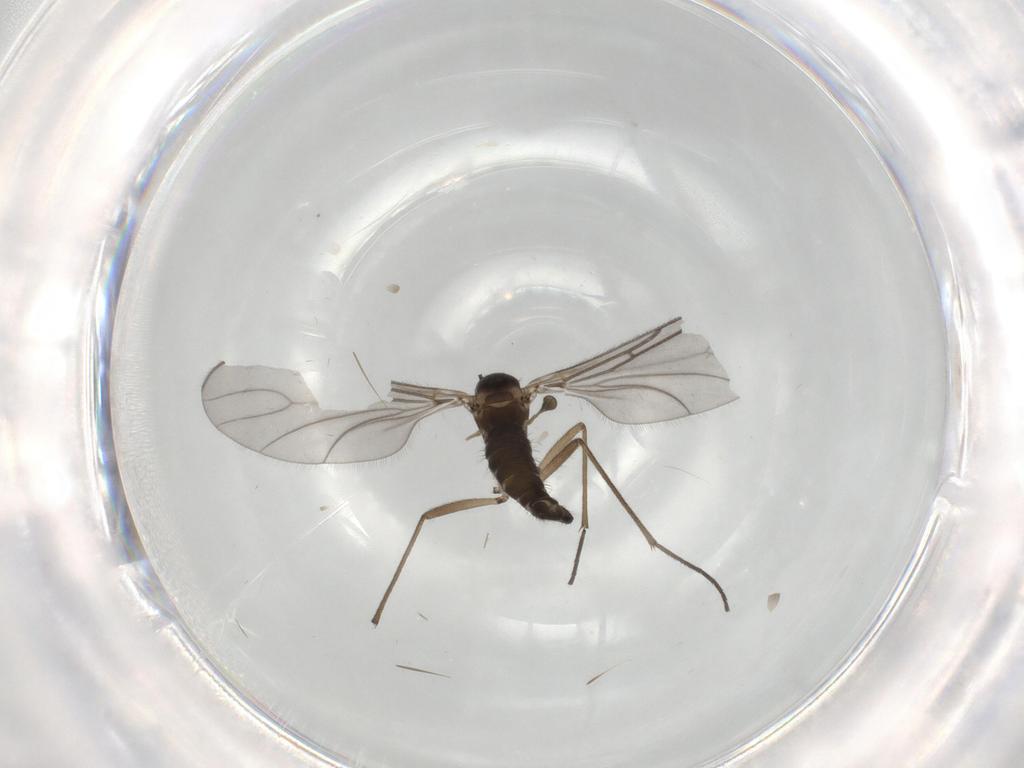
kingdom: Animalia
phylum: Arthropoda
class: Insecta
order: Diptera
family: Sciaridae
